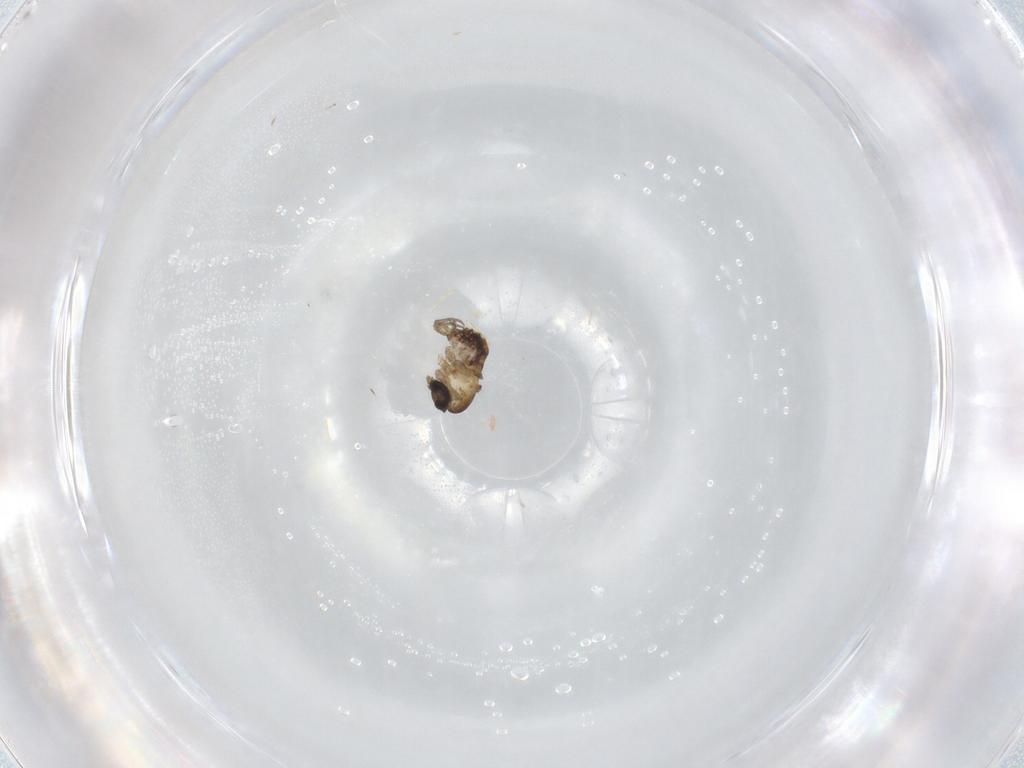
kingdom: Animalia
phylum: Arthropoda
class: Insecta
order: Diptera
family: Psychodidae
